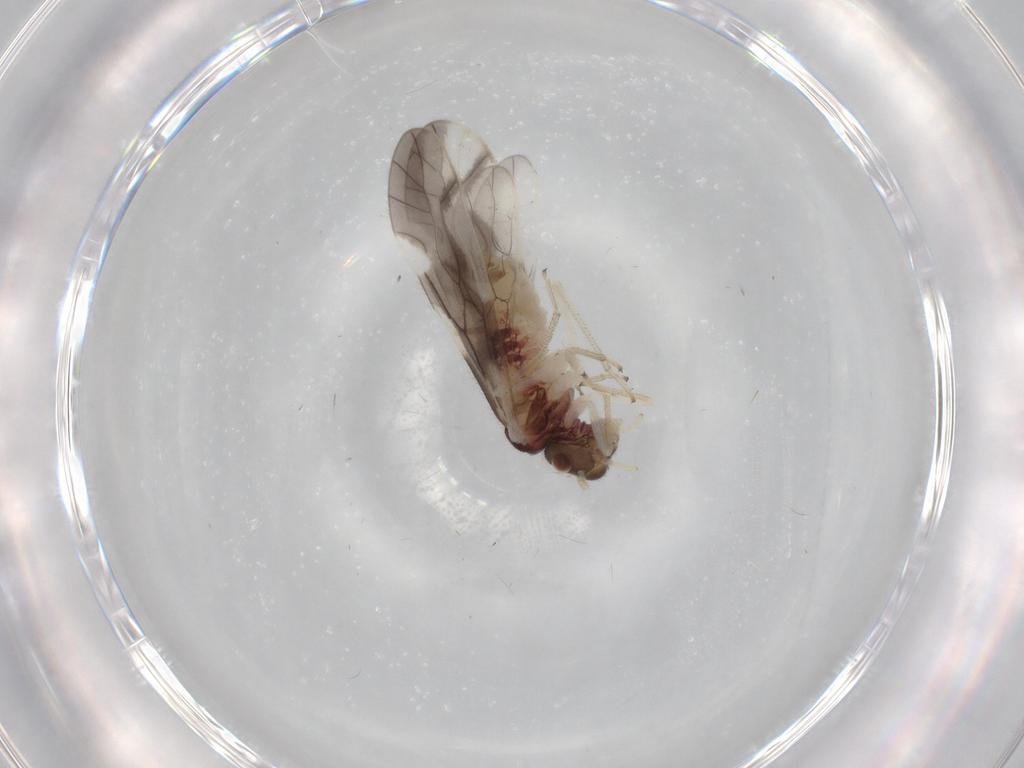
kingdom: Animalia
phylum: Arthropoda
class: Insecta
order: Psocodea
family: Caeciliusidae
